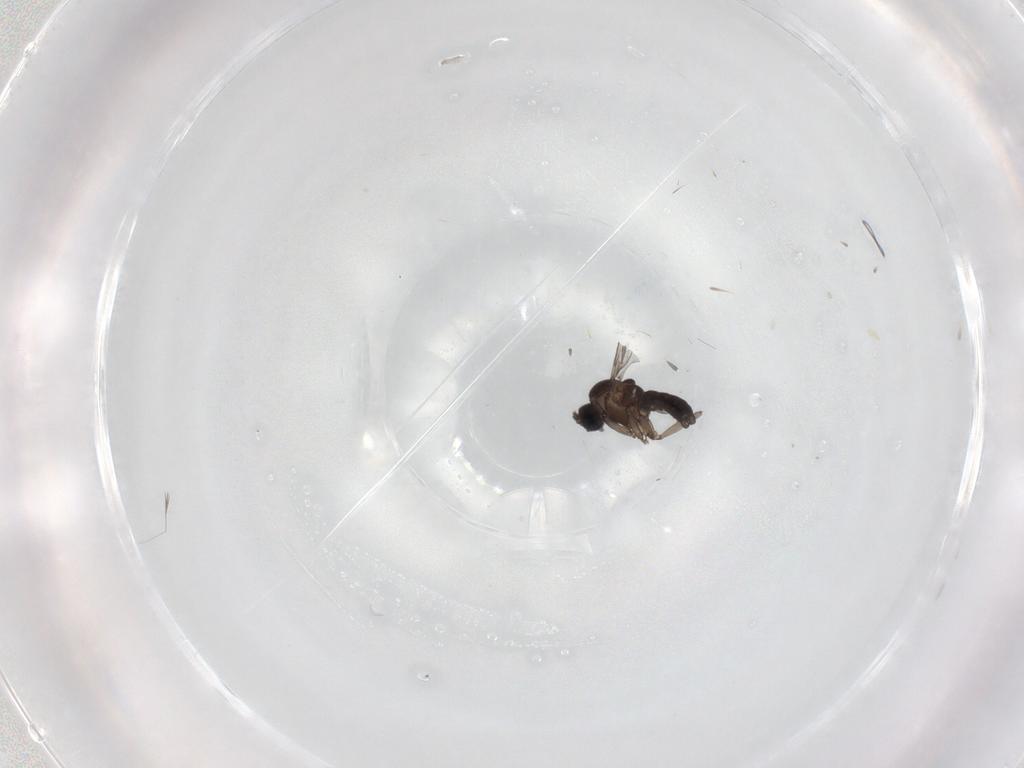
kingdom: Animalia
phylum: Arthropoda
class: Insecta
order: Diptera
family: Sciaridae
